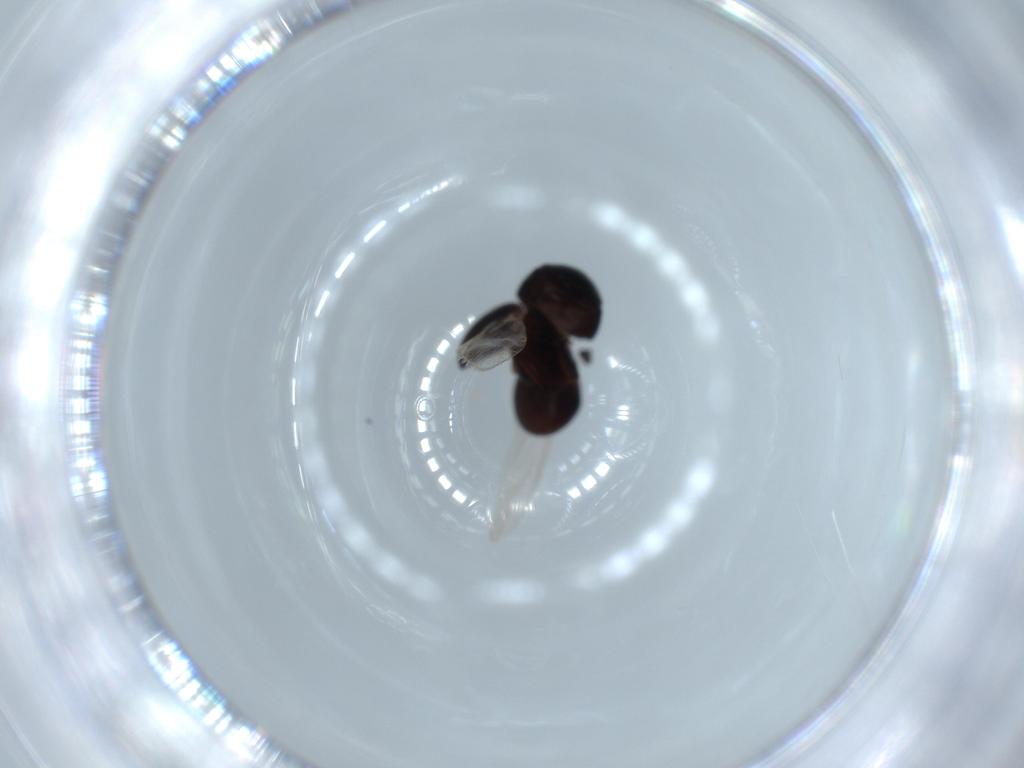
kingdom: Animalia
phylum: Arthropoda
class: Insecta
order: Coleoptera
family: Cybocephalidae
